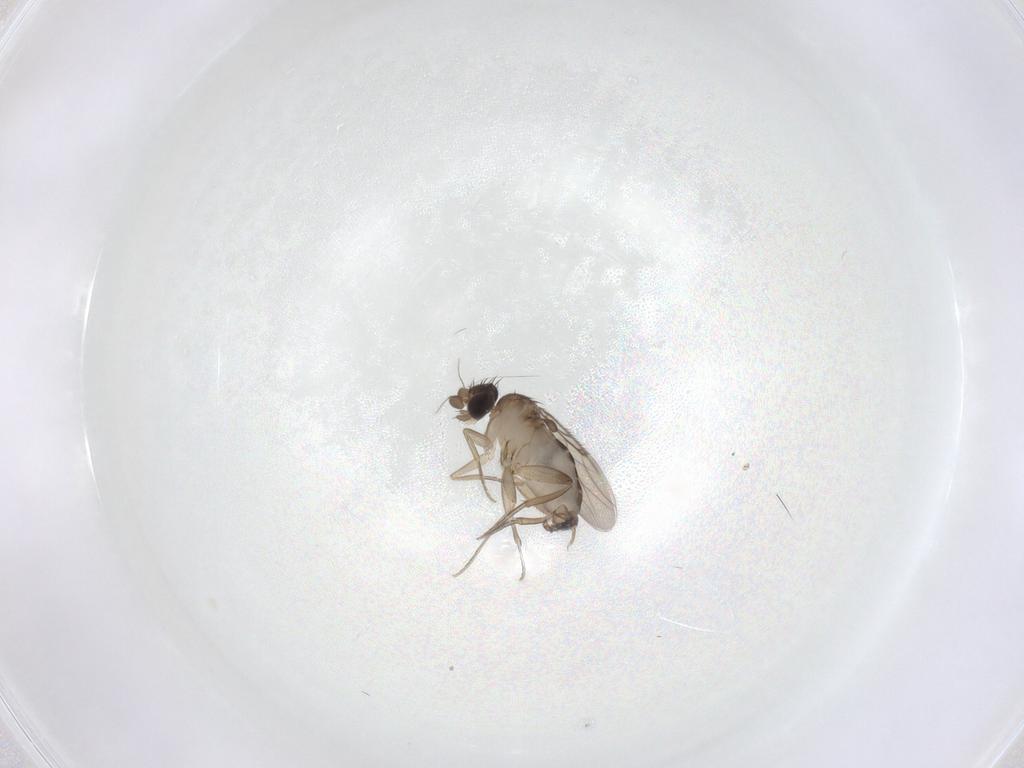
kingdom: Animalia
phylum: Arthropoda
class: Insecta
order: Diptera
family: Phoridae
